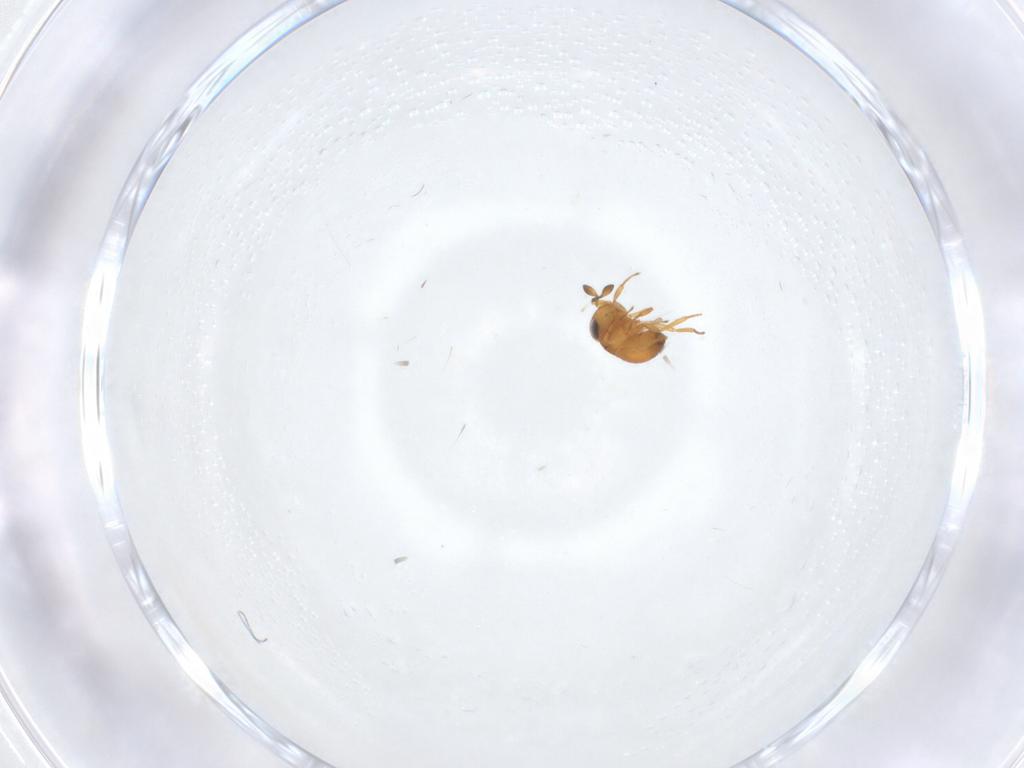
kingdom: Animalia
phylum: Arthropoda
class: Insecta
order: Hymenoptera
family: Scelionidae
